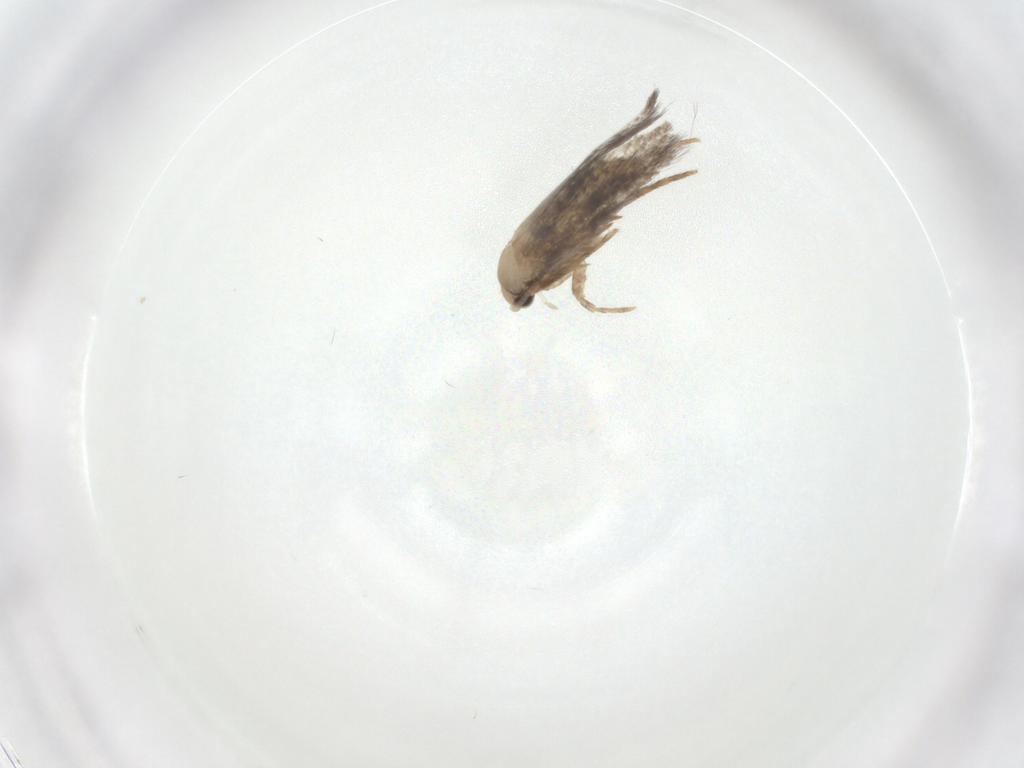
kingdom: Animalia
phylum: Arthropoda
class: Insecta
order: Lepidoptera
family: Tineidae
